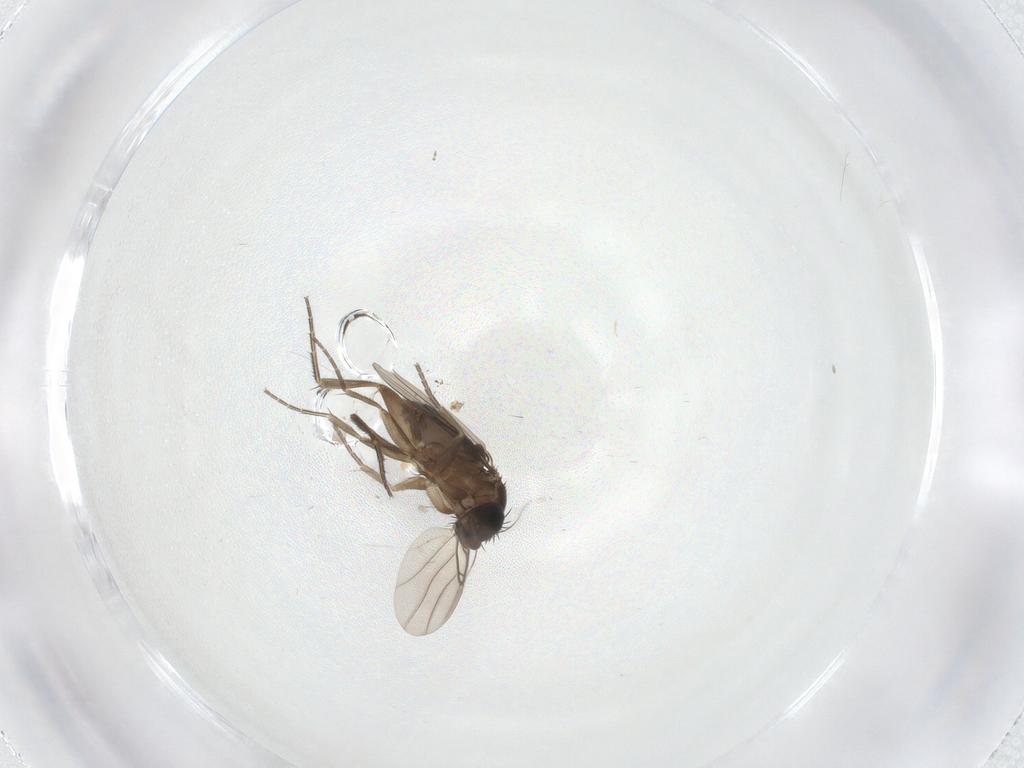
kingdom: Animalia
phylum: Arthropoda
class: Insecta
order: Diptera
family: Phoridae
